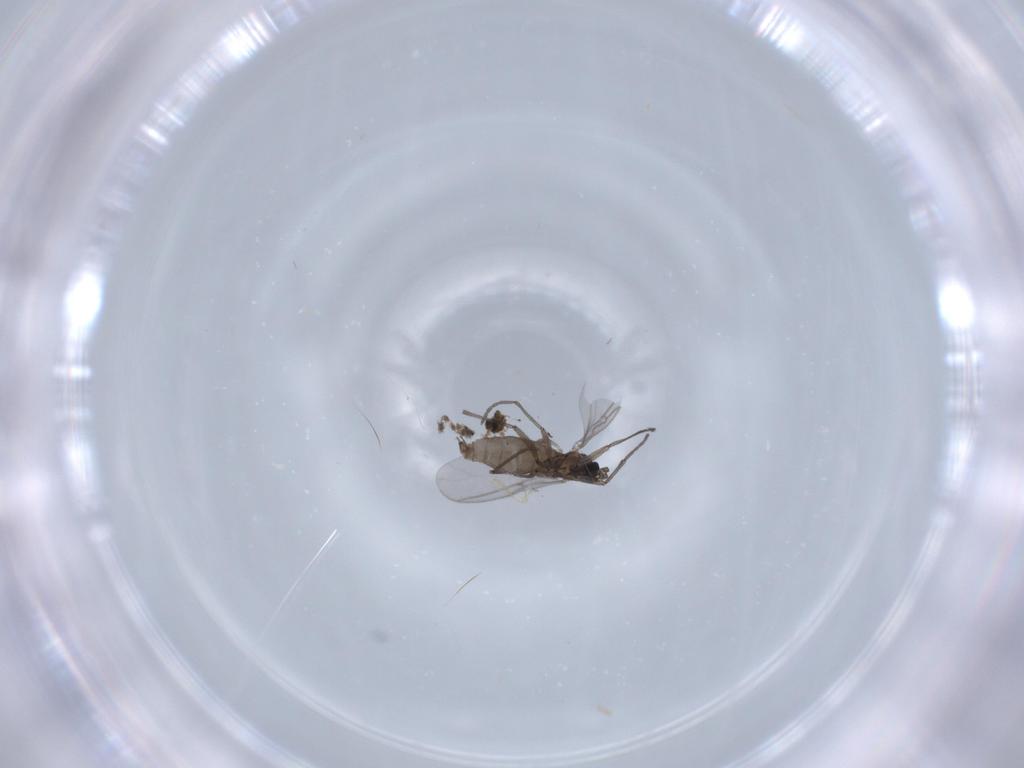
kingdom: Animalia
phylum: Arthropoda
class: Insecta
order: Diptera
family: Sciaridae
